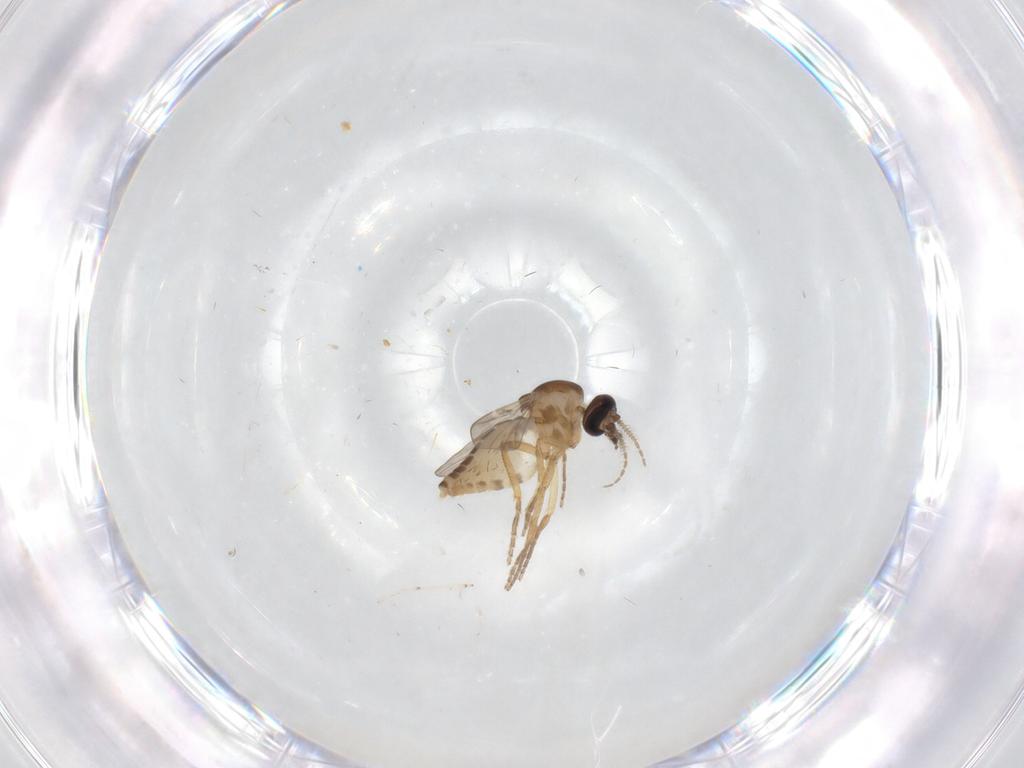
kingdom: Animalia
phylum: Arthropoda
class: Insecta
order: Diptera
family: Ceratopogonidae
